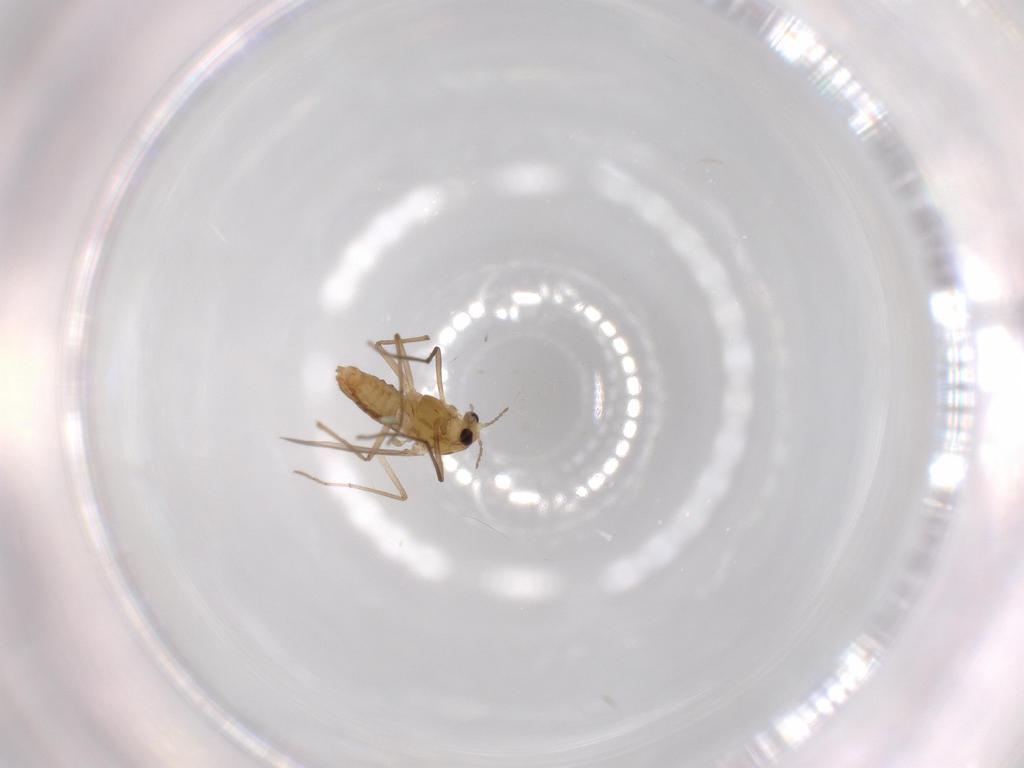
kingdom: Animalia
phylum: Arthropoda
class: Insecta
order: Diptera
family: Chironomidae
